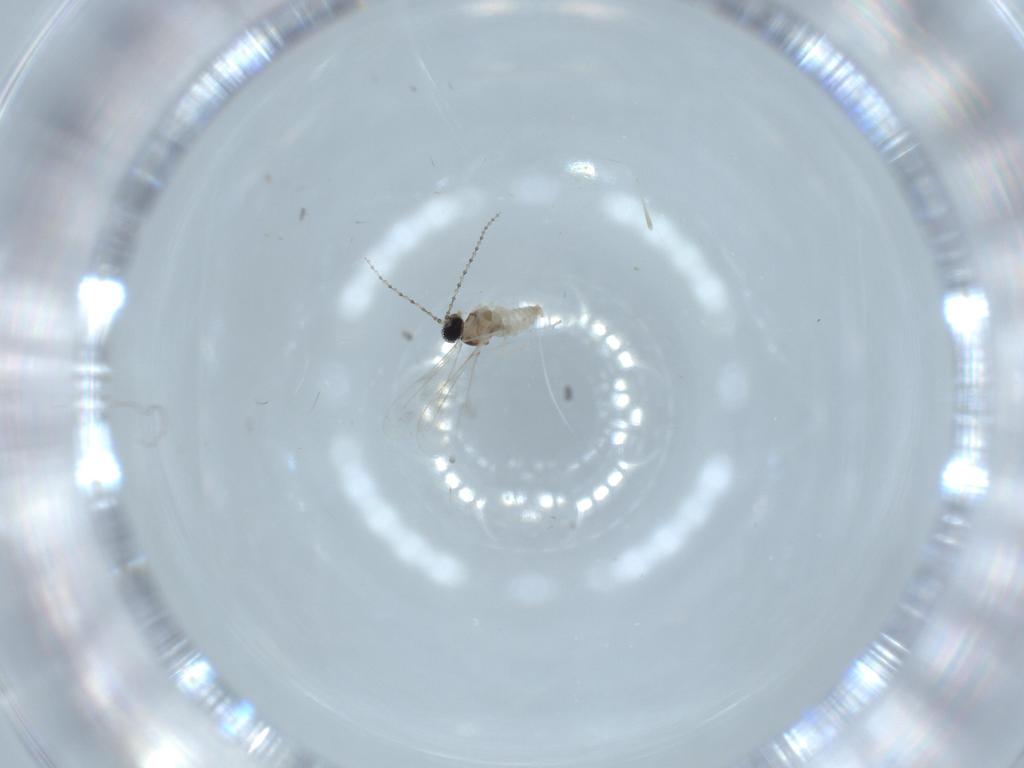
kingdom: Animalia
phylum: Arthropoda
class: Insecta
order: Diptera
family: Cecidomyiidae
